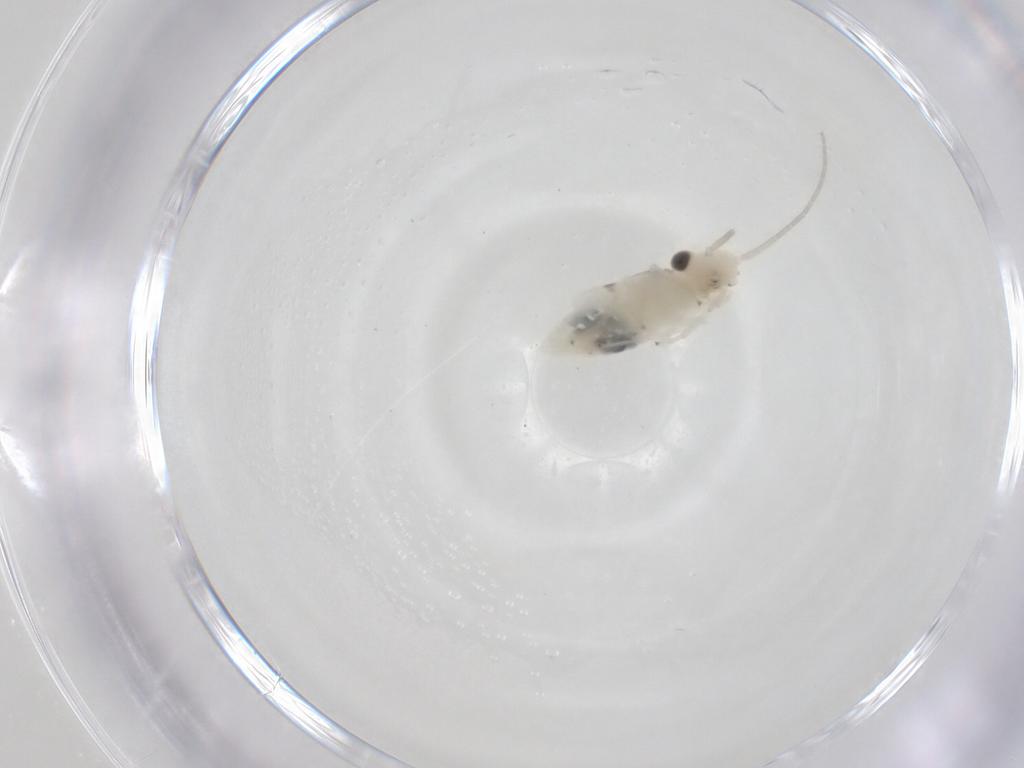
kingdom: Animalia
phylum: Arthropoda
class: Insecta
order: Psocodea
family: Caeciliusidae
